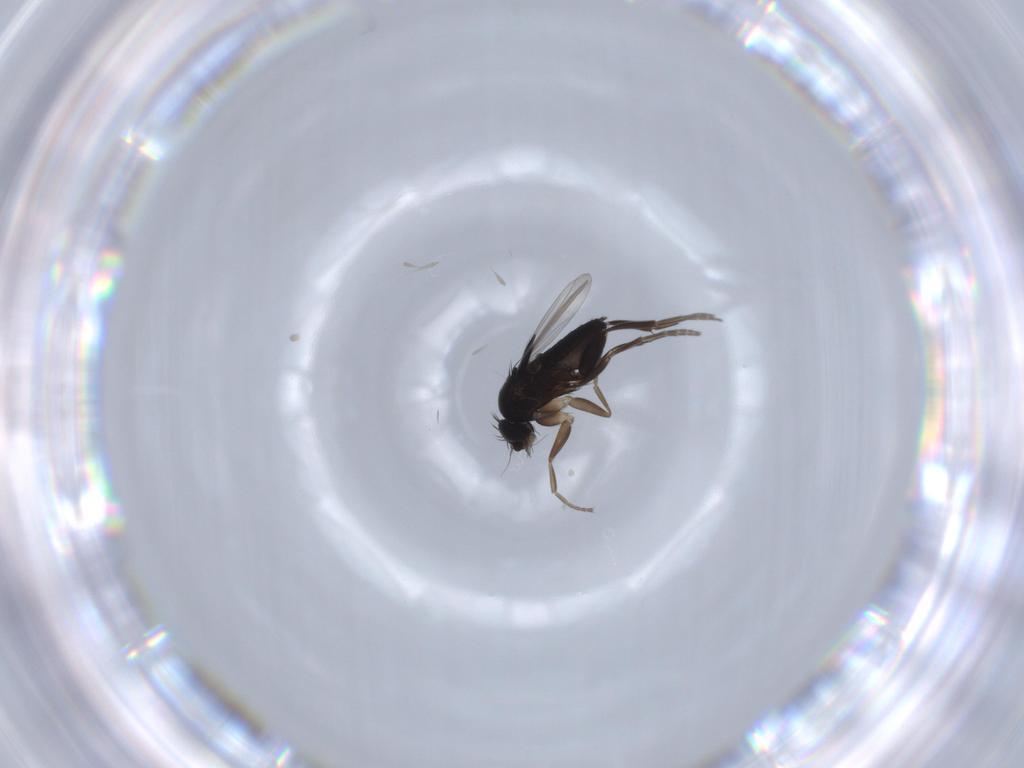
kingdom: Animalia
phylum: Arthropoda
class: Insecta
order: Diptera
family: Phoridae
